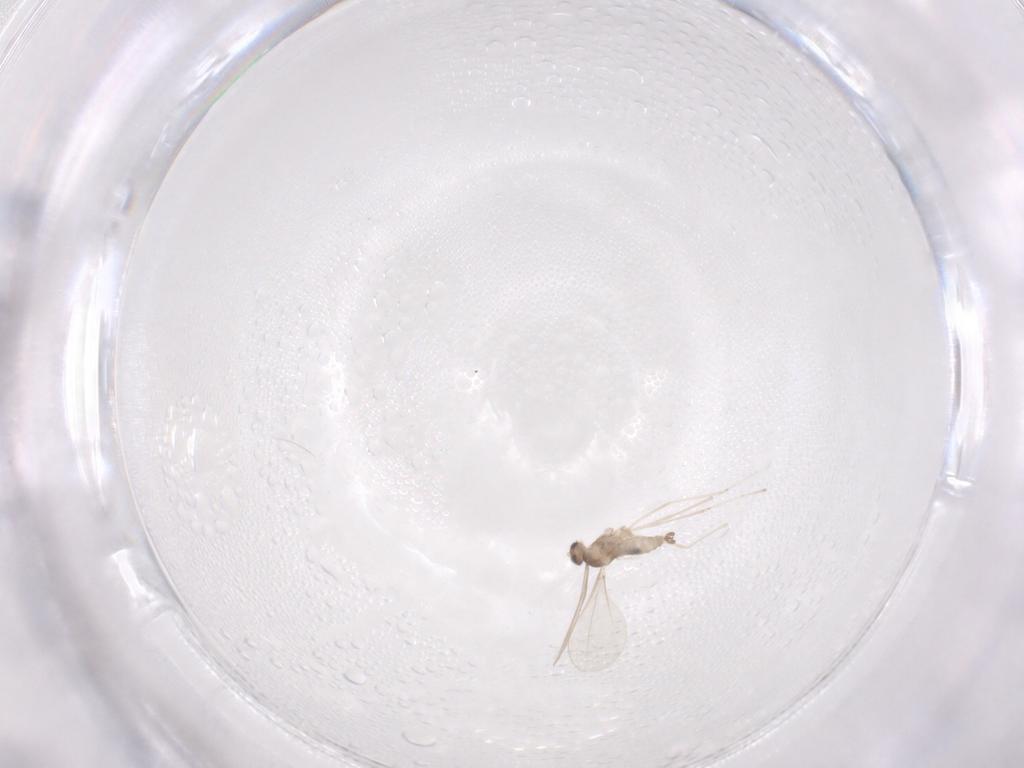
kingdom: Animalia
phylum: Arthropoda
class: Insecta
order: Diptera
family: Cecidomyiidae
